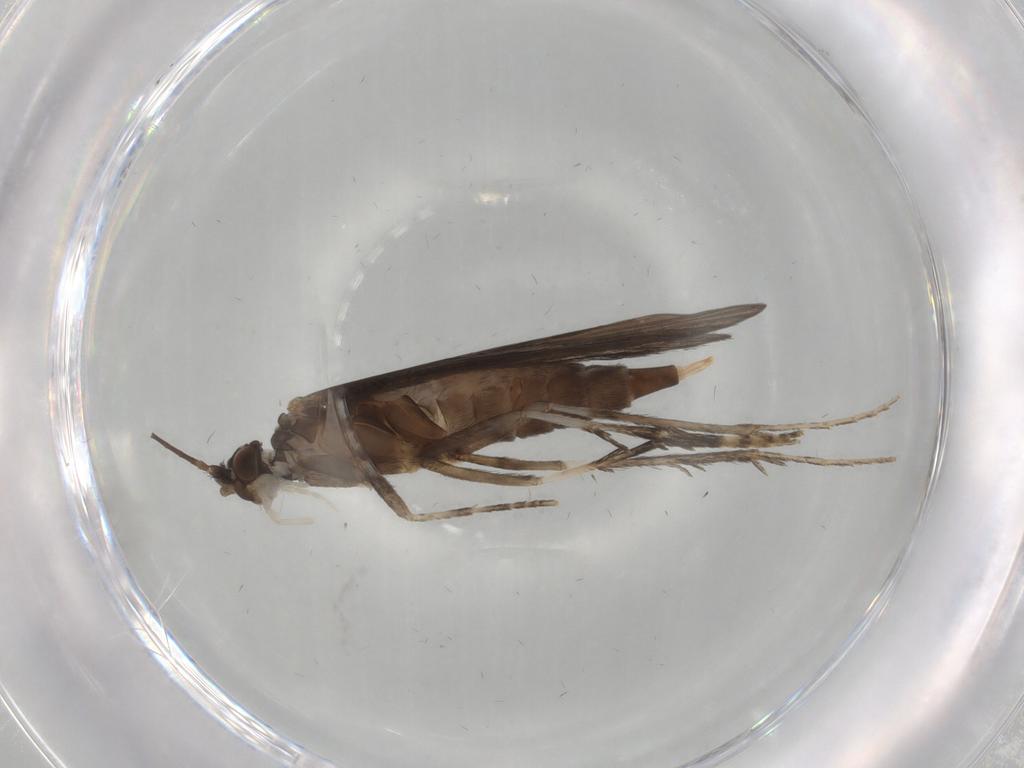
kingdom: Animalia
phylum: Arthropoda
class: Insecta
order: Trichoptera
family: Xiphocentronidae
